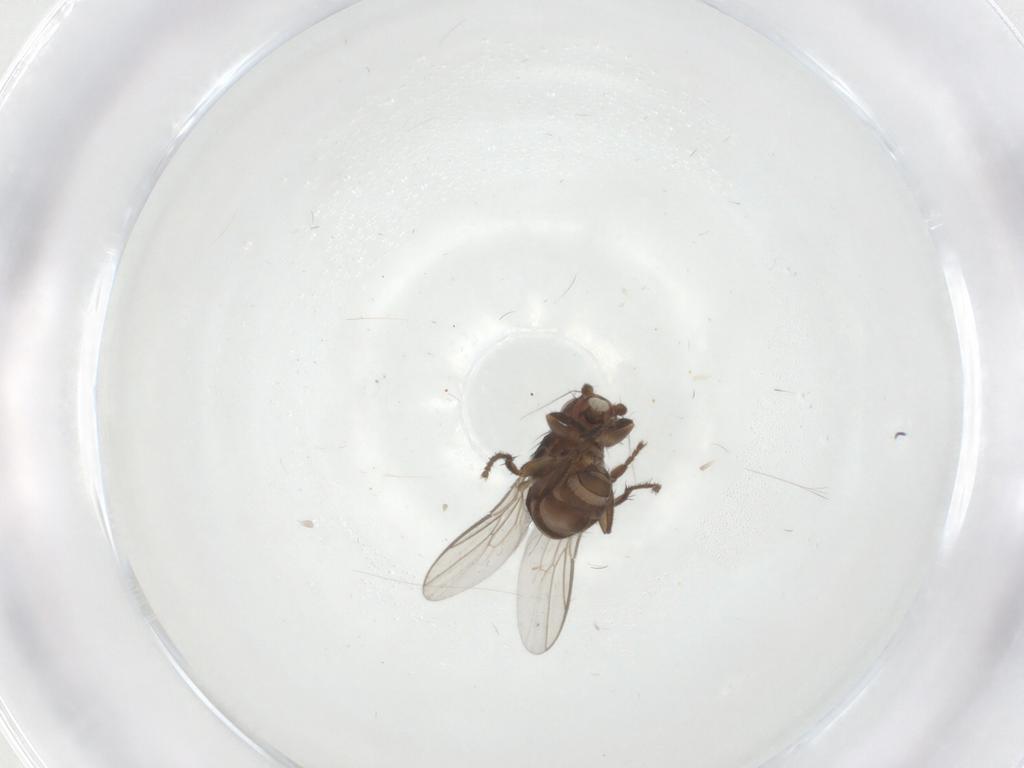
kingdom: Animalia
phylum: Arthropoda
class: Insecta
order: Diptera
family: Sphaeroceridae
